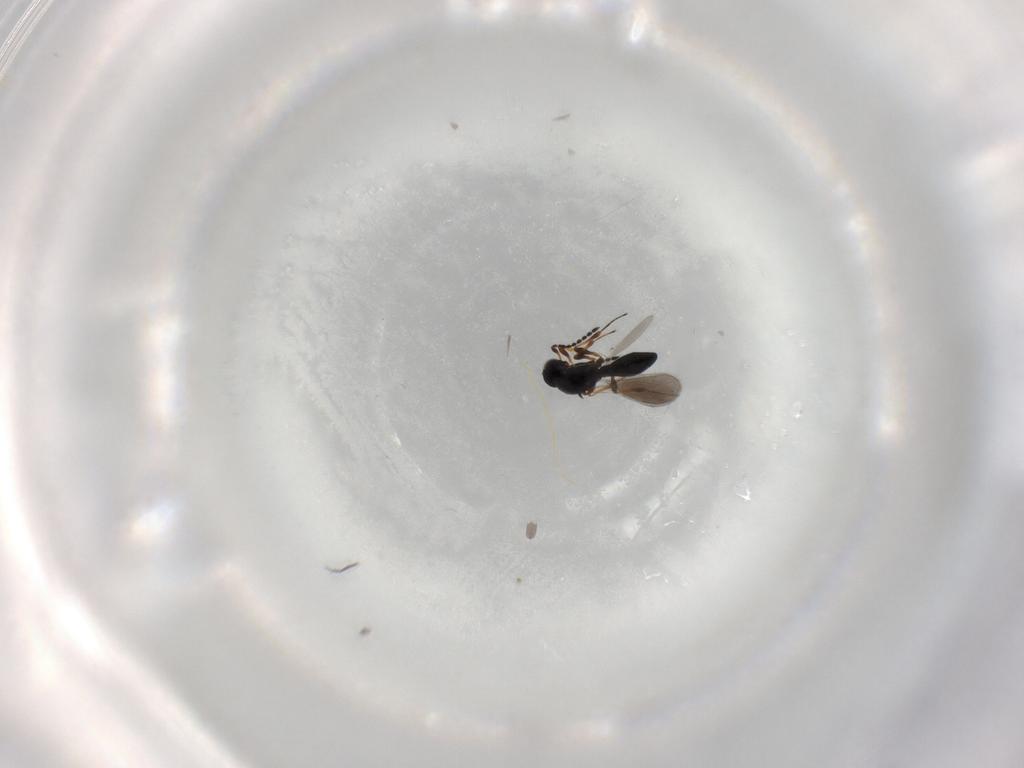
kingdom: Animalia
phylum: Arthropoda
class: Insecta
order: Hymenoptera
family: Platygastridae
